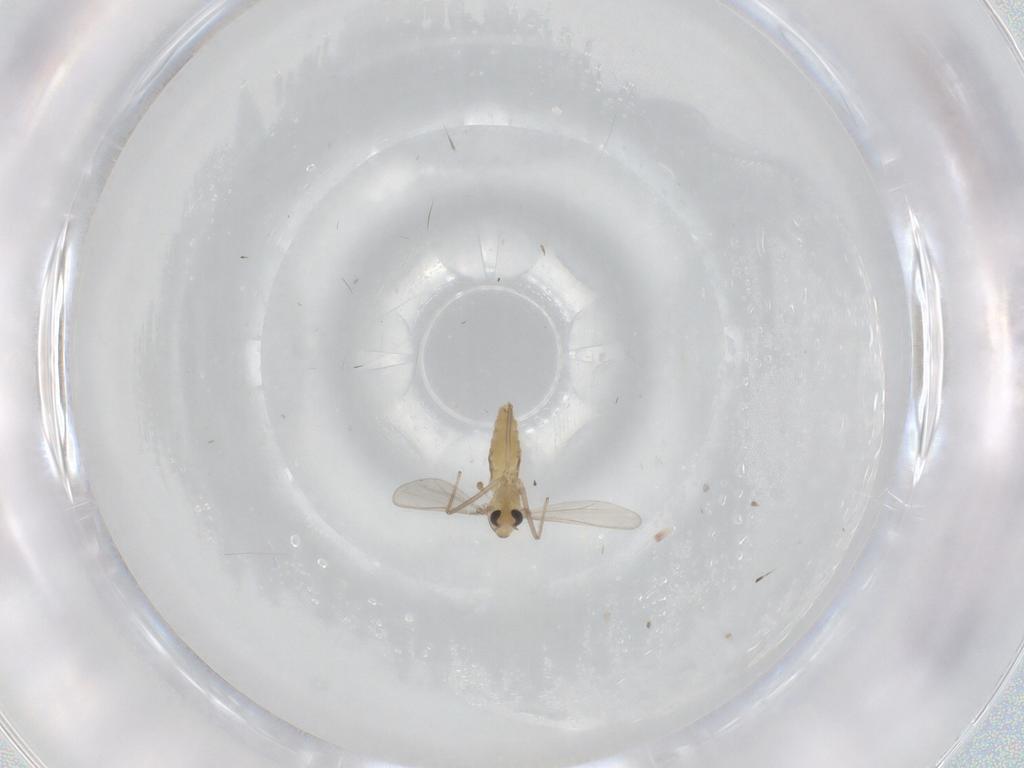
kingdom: Animalia
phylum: Arthropoda
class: Insecta
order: Diptera
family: Chironomidae
